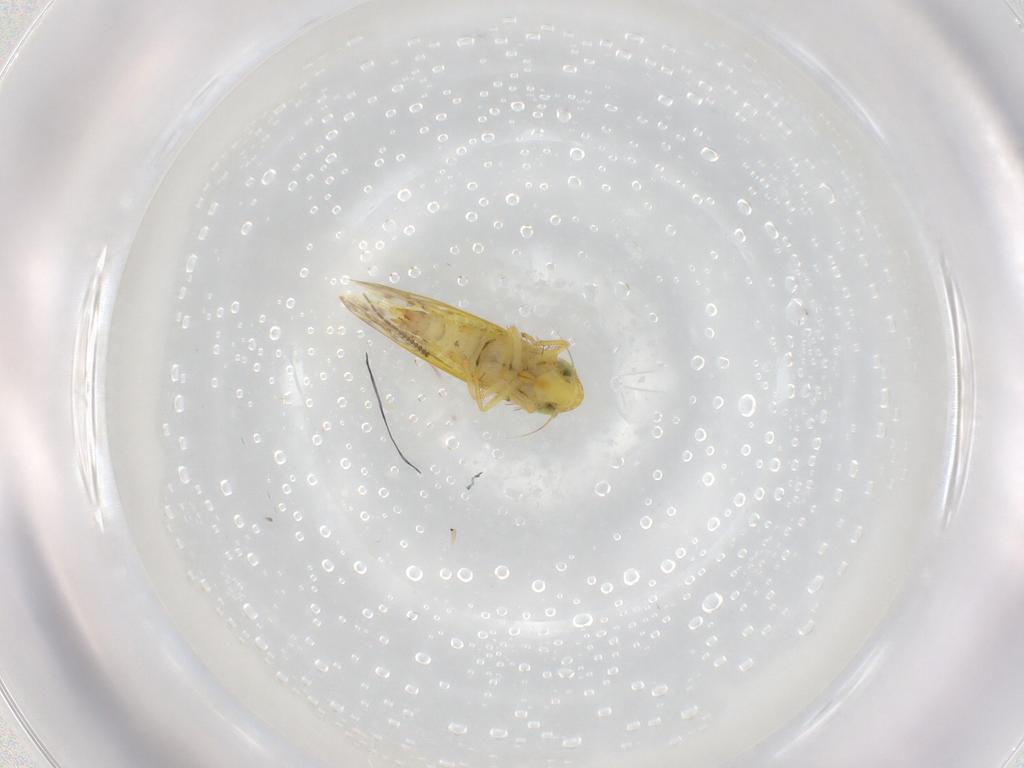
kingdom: Animalia
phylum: Arthropoda
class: Insecta
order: Hemiptera
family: Cicadellidae
